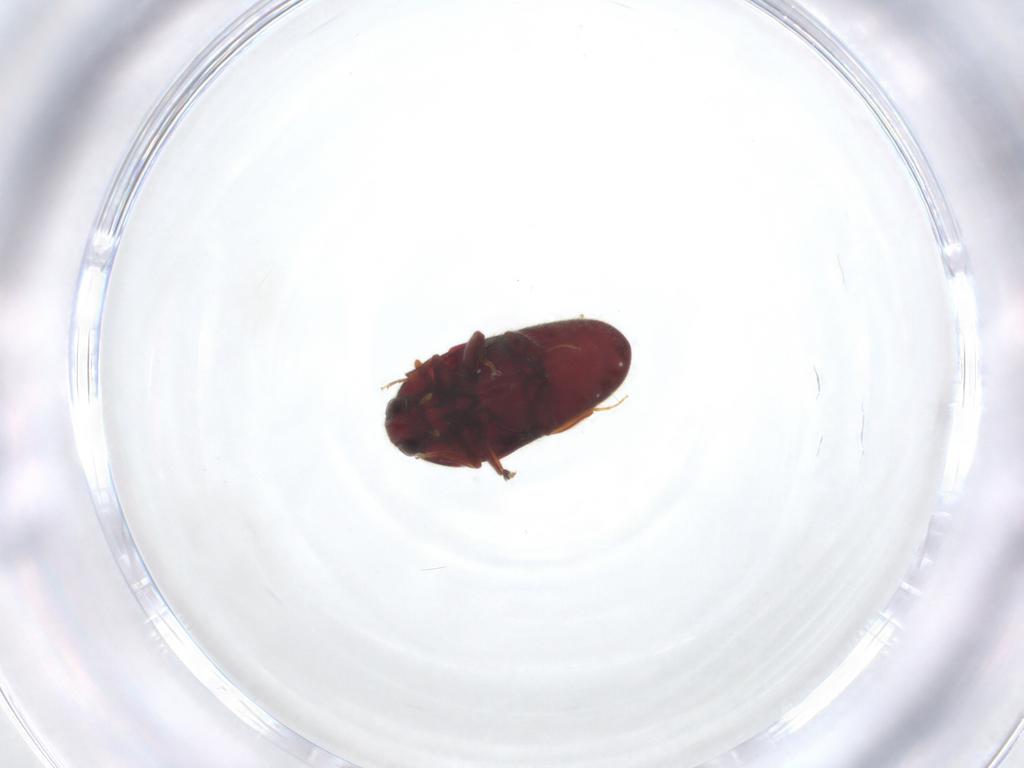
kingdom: Animalia
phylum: Arthropoda
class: Insecta
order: Coleoptera
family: Throscidae
